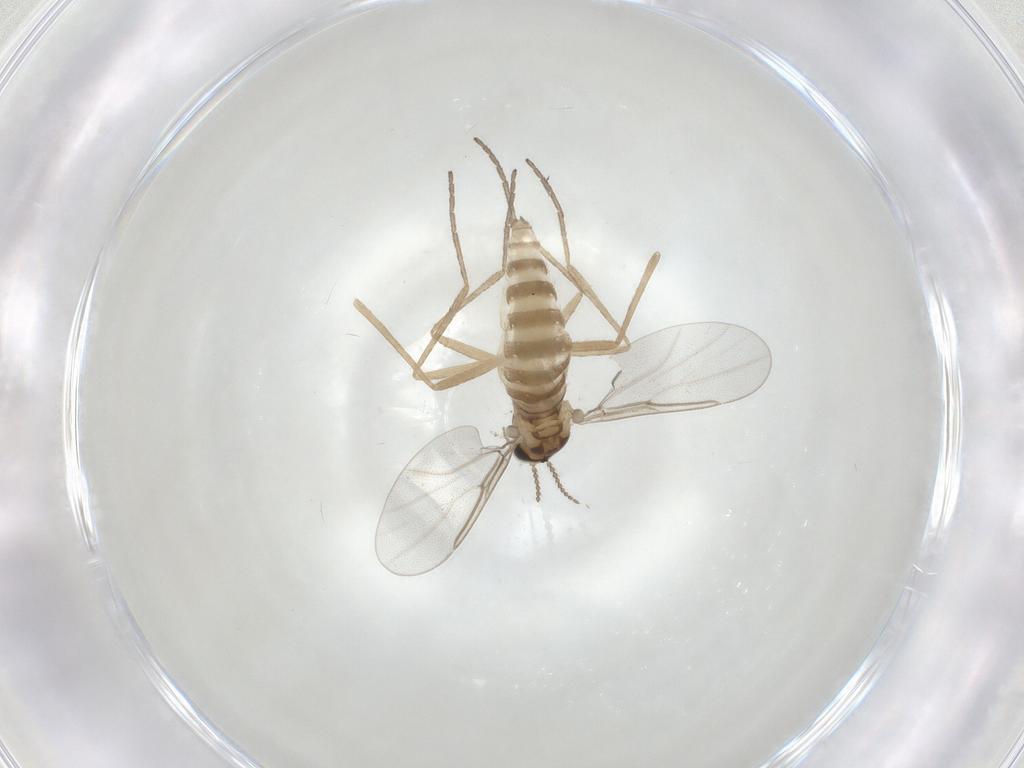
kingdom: Animalia
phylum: Arthropoda
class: Insecta
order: Diptera
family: Cecidomyiidae
